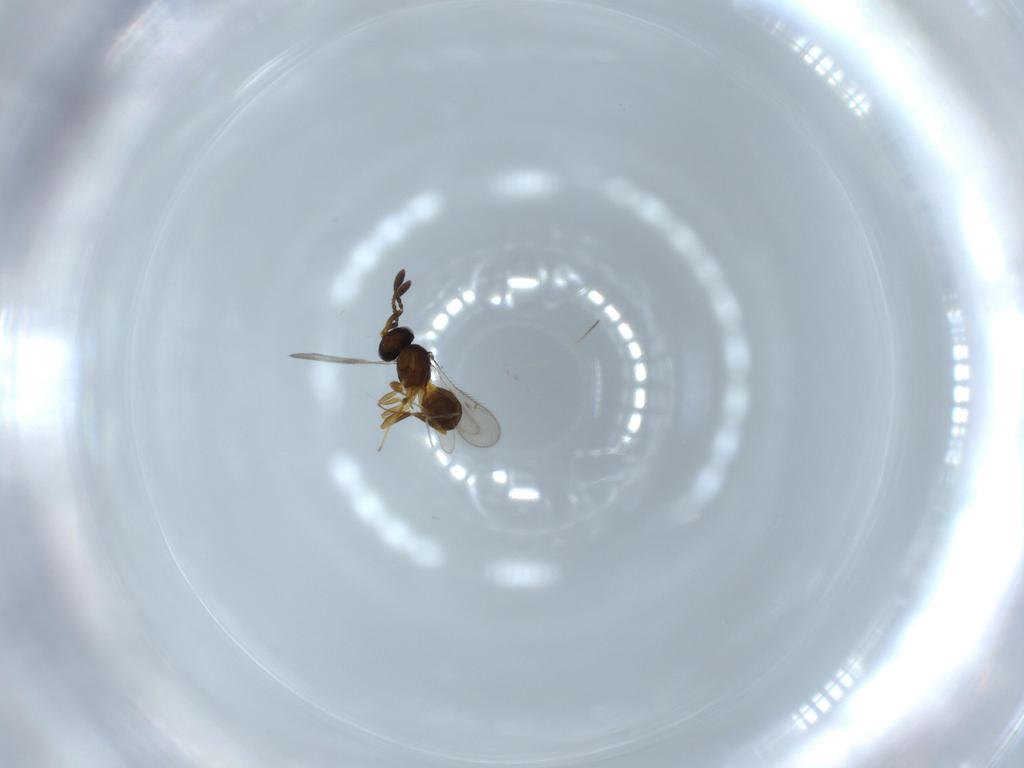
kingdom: Animalia
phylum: Arthropoda
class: Insecta
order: Hymenoptera
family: Scelionidae
